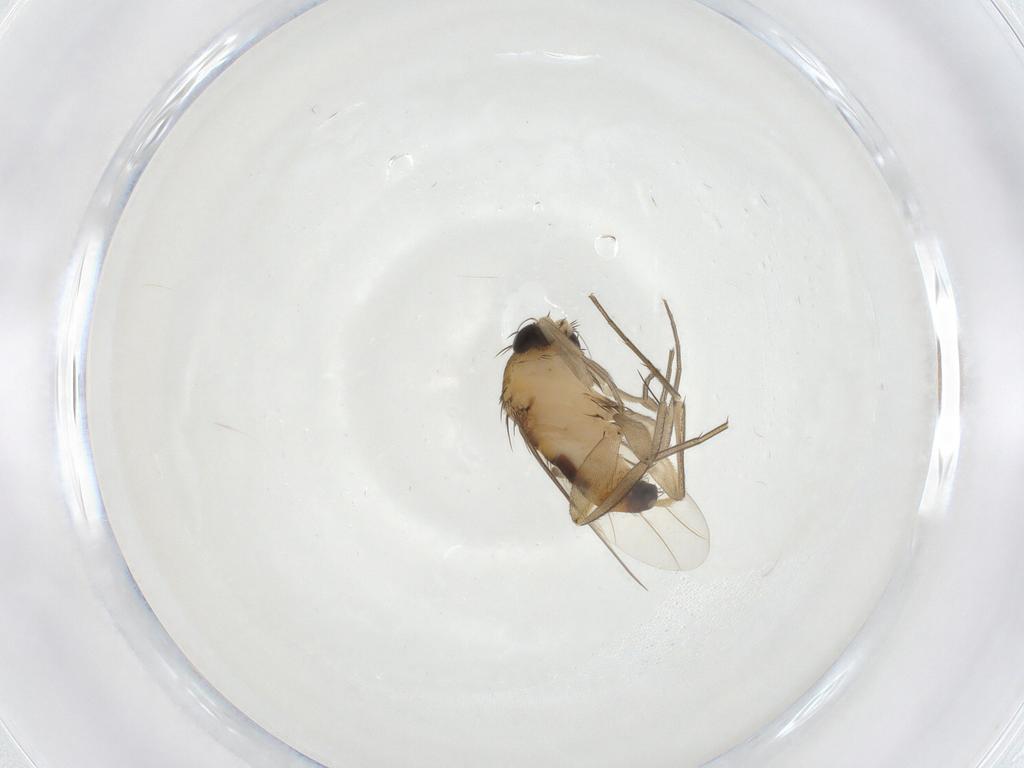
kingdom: Animalia
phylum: Arthropoda
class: Insecta
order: Diptera
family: Phoridae
